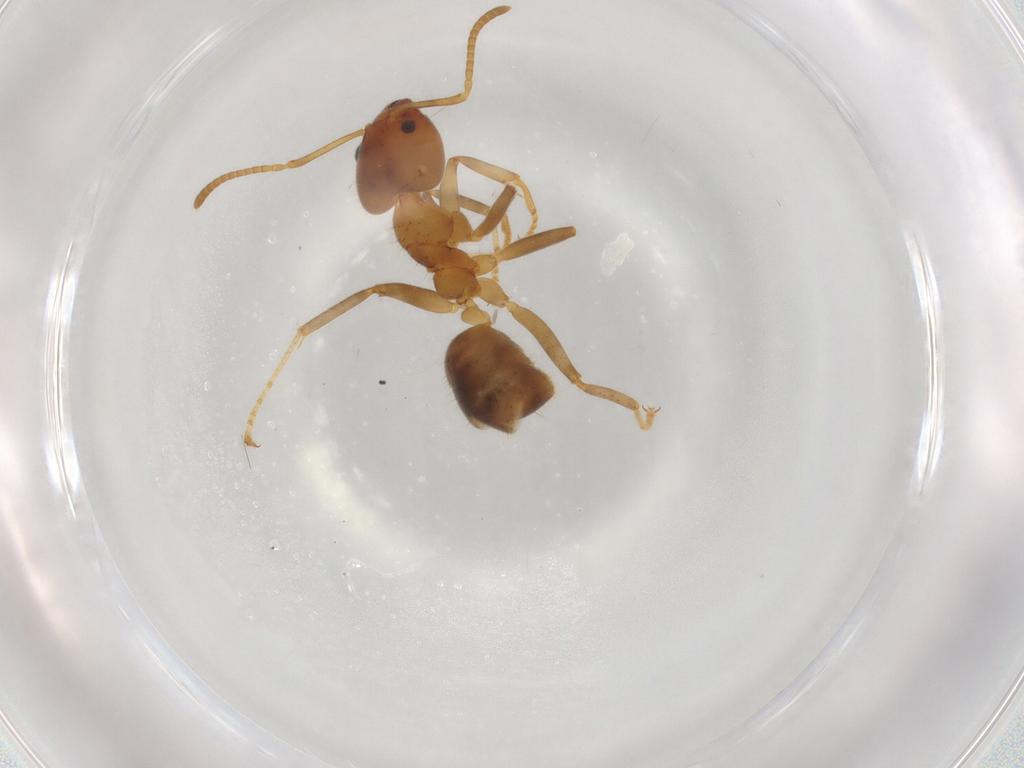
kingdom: Animalia
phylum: Arthropoda
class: Insecta
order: Hymenoptera
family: Formicidae
